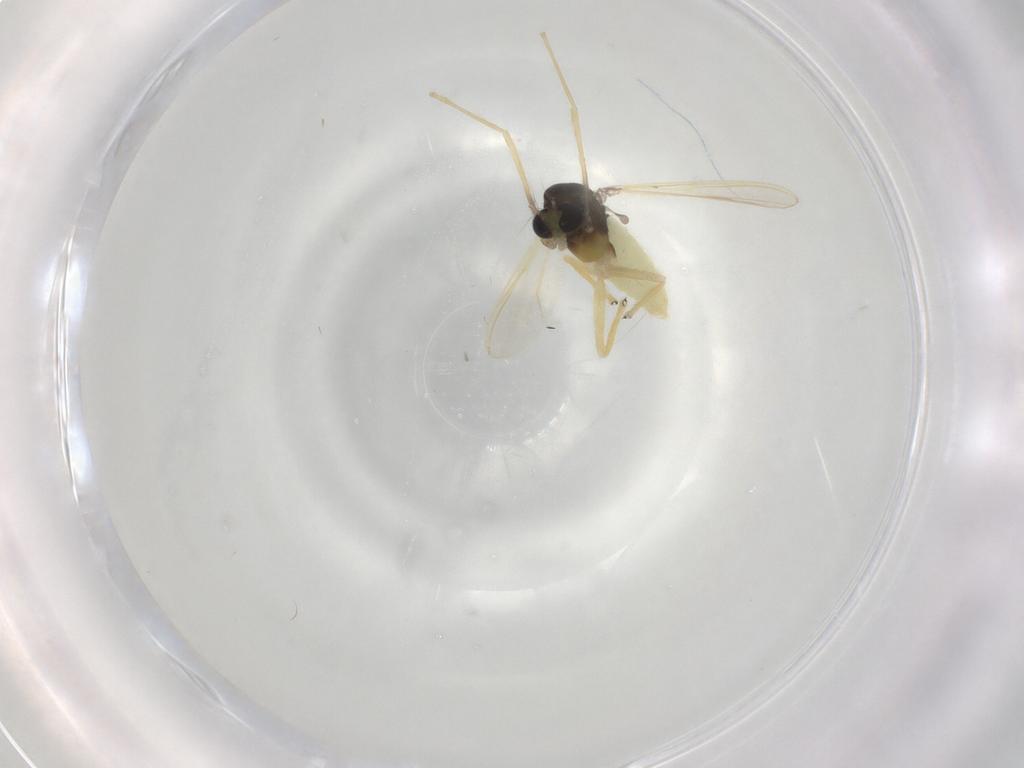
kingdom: Animalia
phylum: Arthropoda
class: Insecta
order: Diptera
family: Chironomidae
